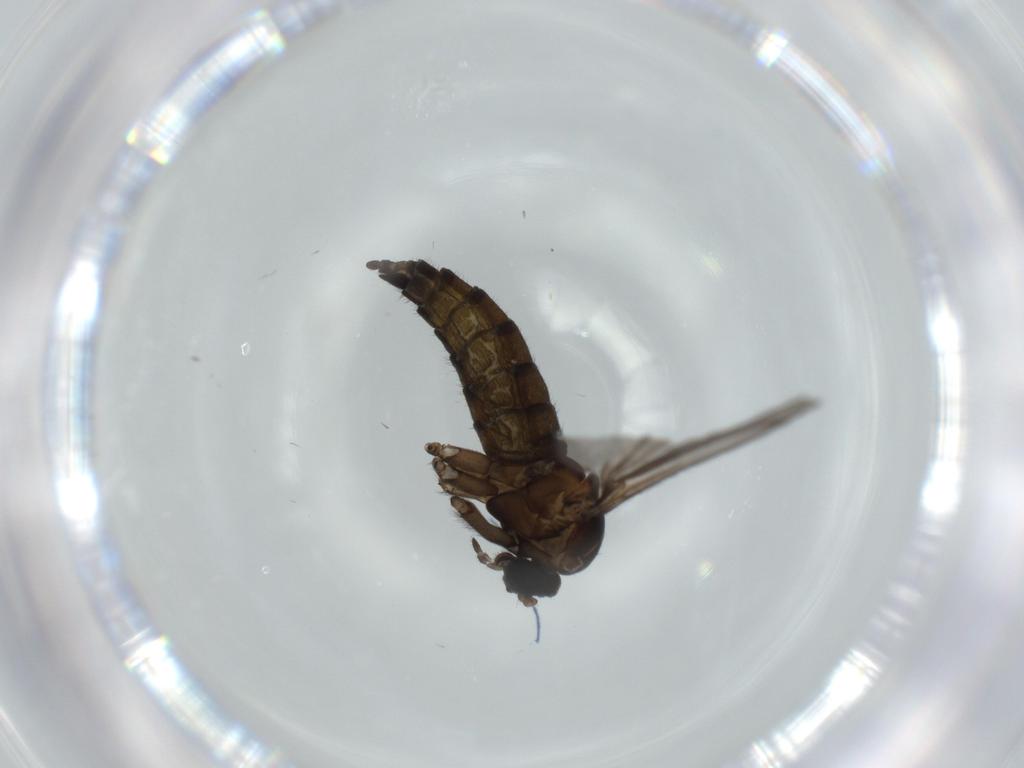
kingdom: Animalia
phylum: Arthropoda
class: Insecta
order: Diptera
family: Sciaridae
